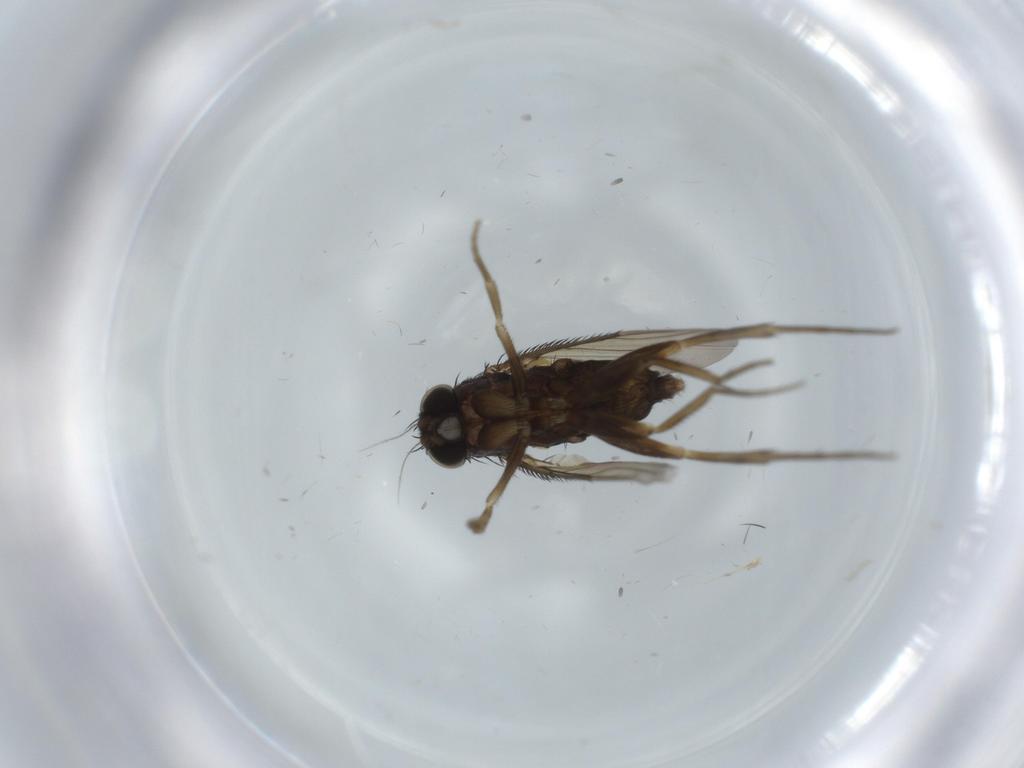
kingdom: Animalia
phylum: Arthropoda
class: Insecta
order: Diptera
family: Phoridae
